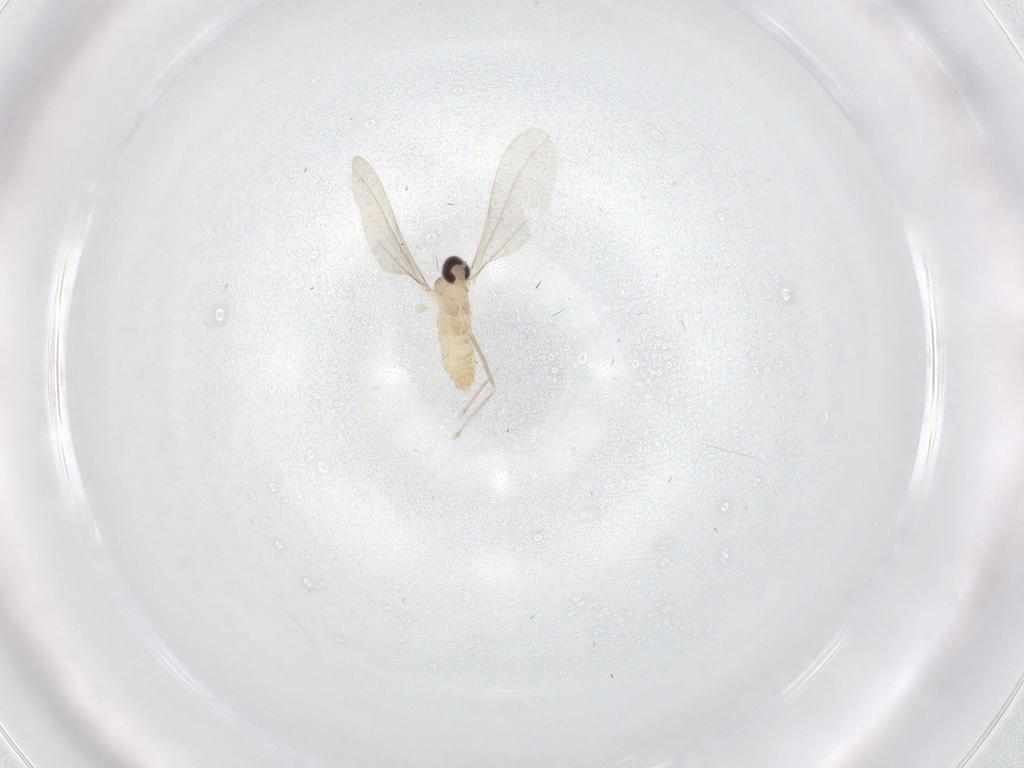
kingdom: Animalia
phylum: Arthropoda
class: Insecta
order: Diptera
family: Cecidomyiidae
